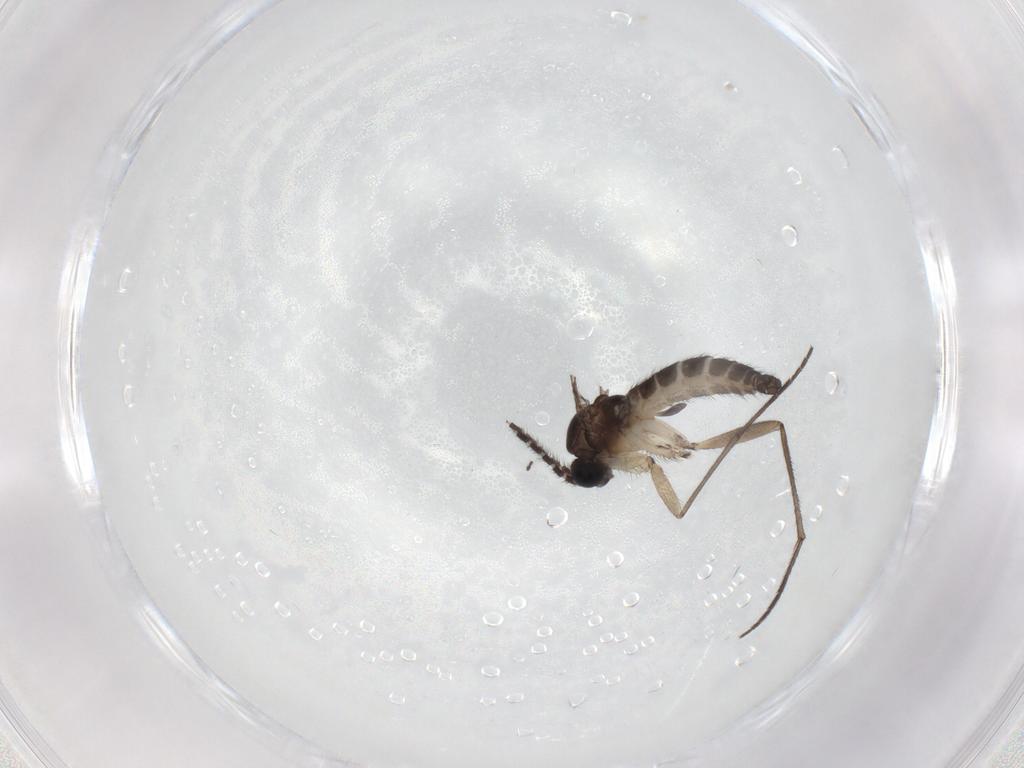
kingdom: Animalia
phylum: Arthropoda
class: Insecta
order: Diptera
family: Sciaridae
